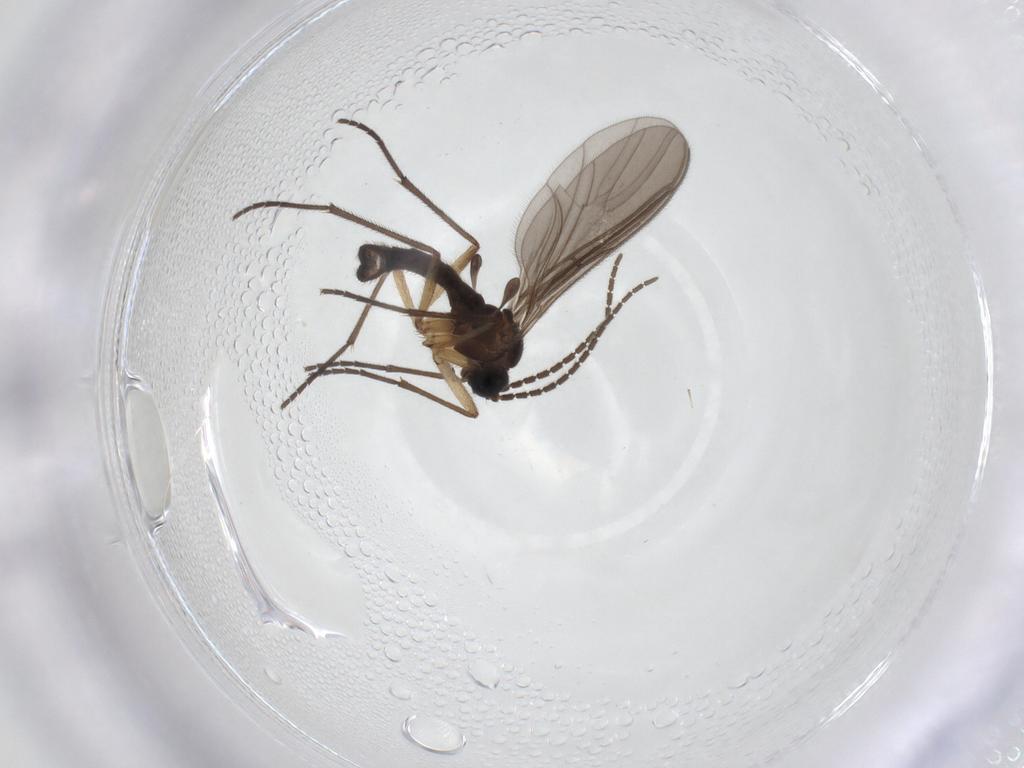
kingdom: Animalia
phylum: Arthropoda
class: Insecta
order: Diptera
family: Sciaridae
